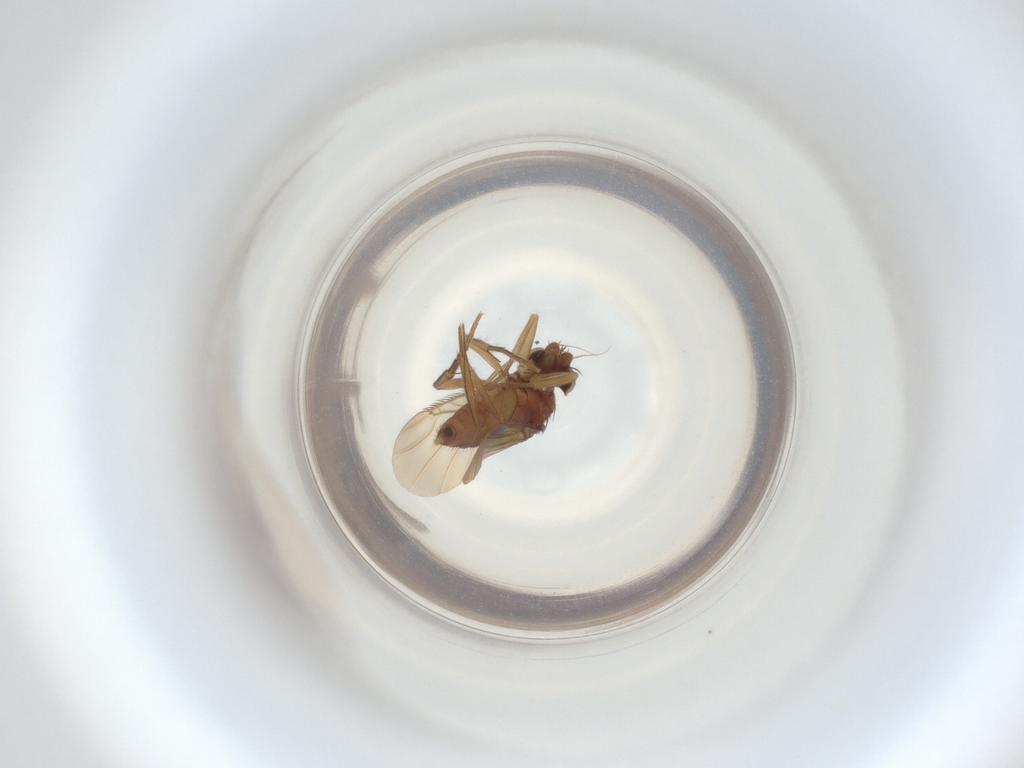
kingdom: Animalia
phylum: Arthropoda
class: Insecta
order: Diptera
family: Phoridae
